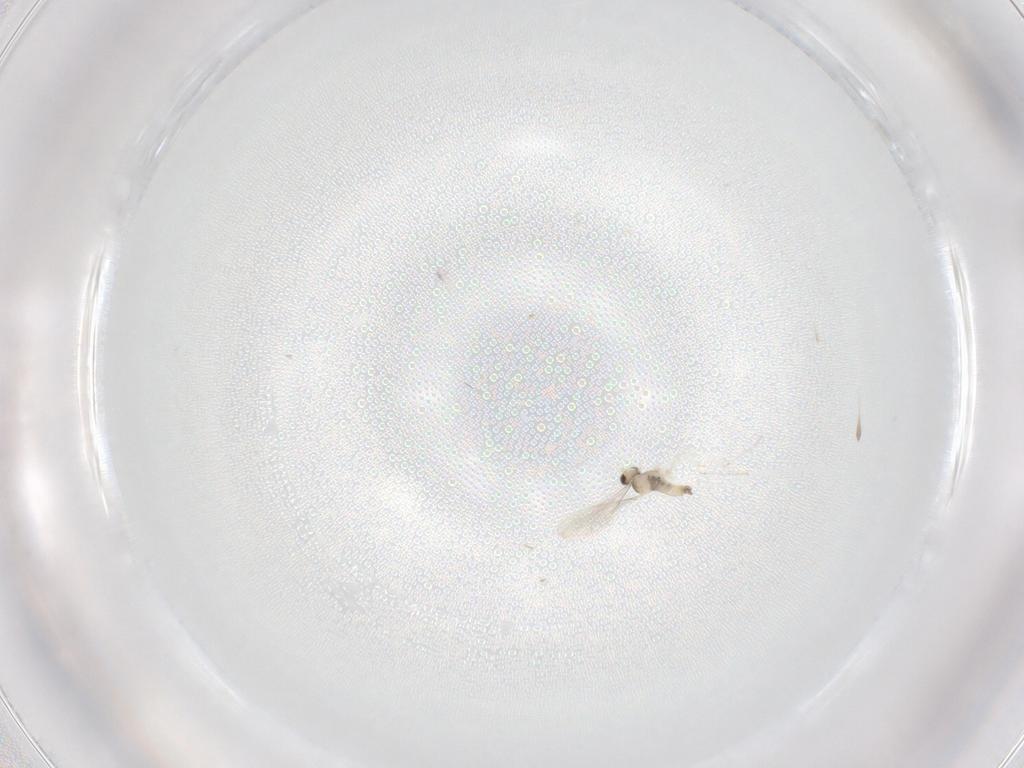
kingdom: Animalia
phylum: Arthropoda
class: Insecta
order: Diptera
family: Cecidomyiidae
